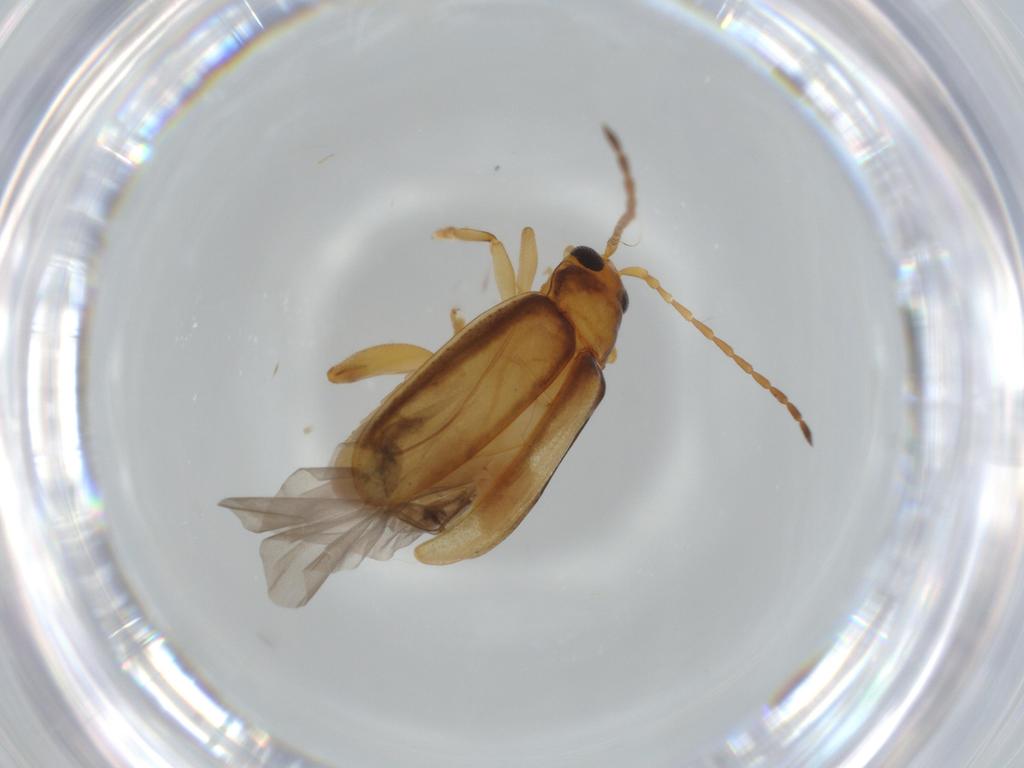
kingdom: Animalia
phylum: Arthropoda
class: Insecta
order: Coleoptera
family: Chrysomelidae
